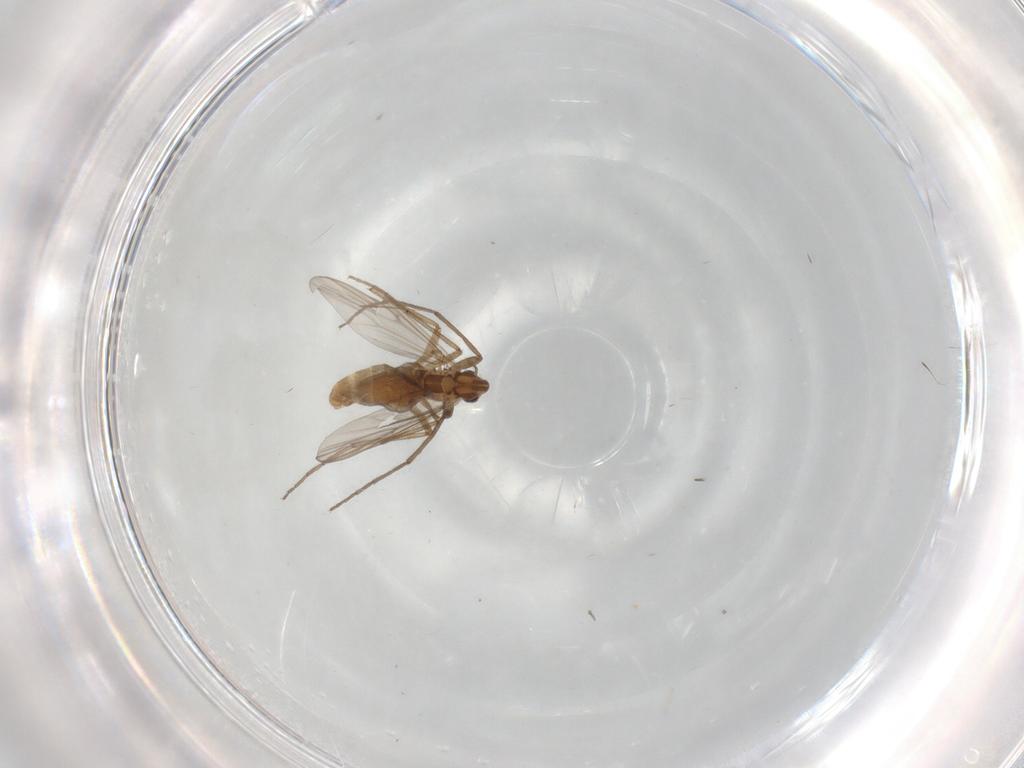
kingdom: Animalia
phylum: Arthropoda
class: Insecta
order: Diptera
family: Chironomidae
